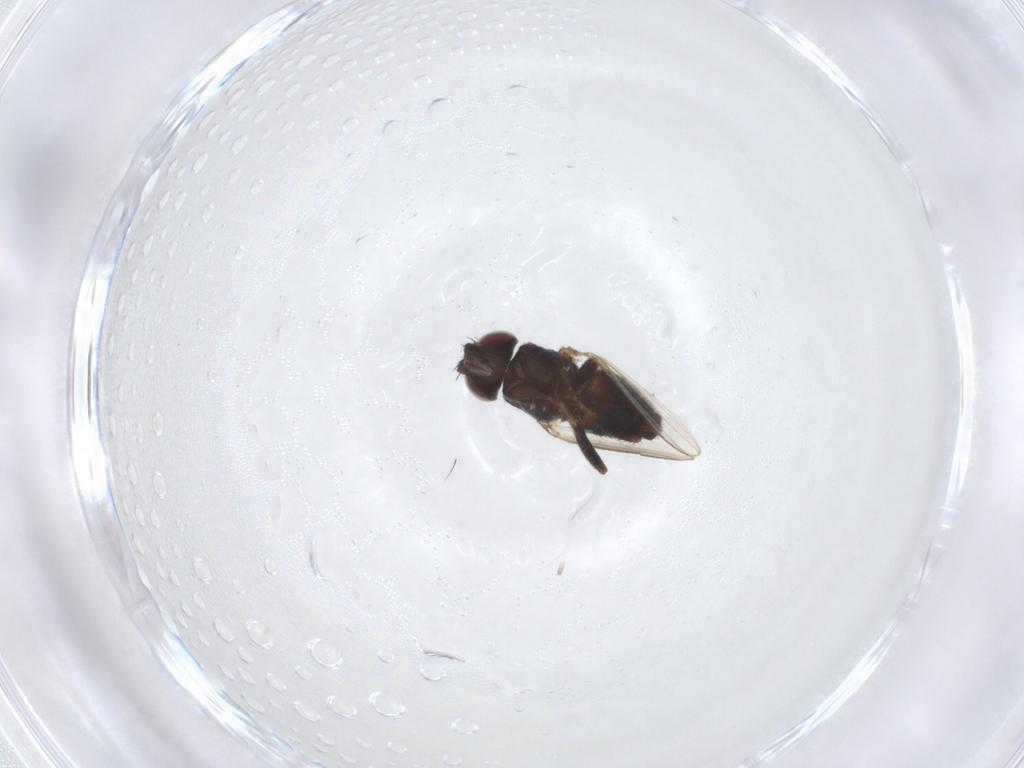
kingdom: Animalia
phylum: Arthropoda
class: Insecta
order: Diptera
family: Milichiidae
